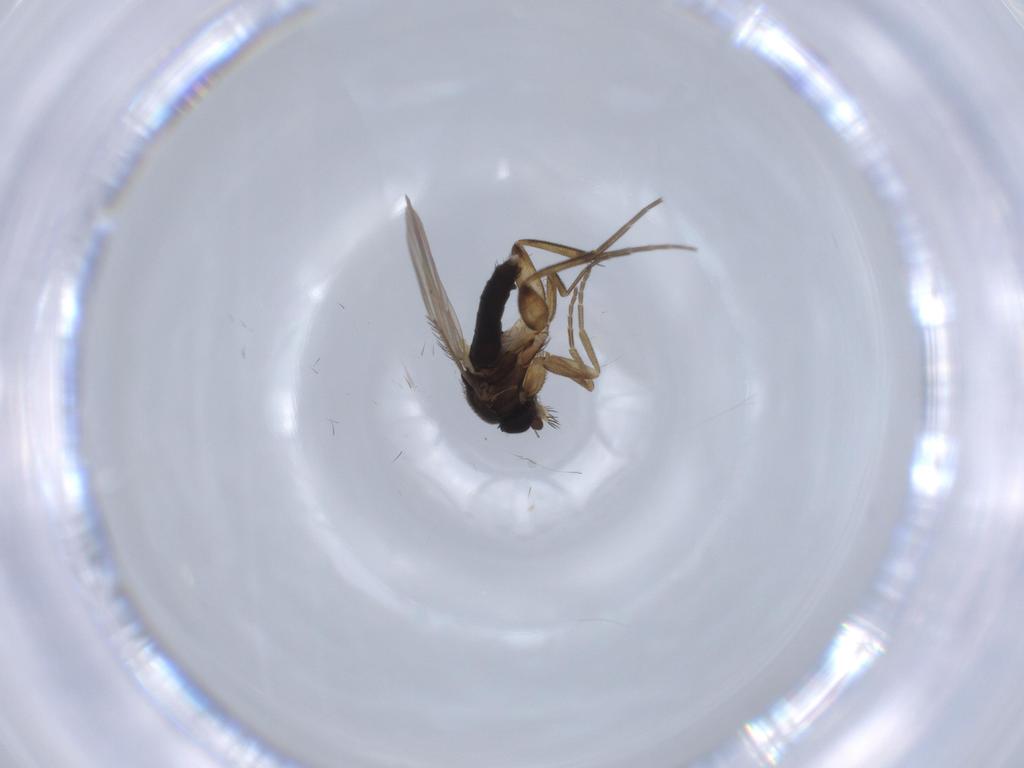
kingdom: Animalia
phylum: Arthropoda
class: Insecta
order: Diptera
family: Phoridae
